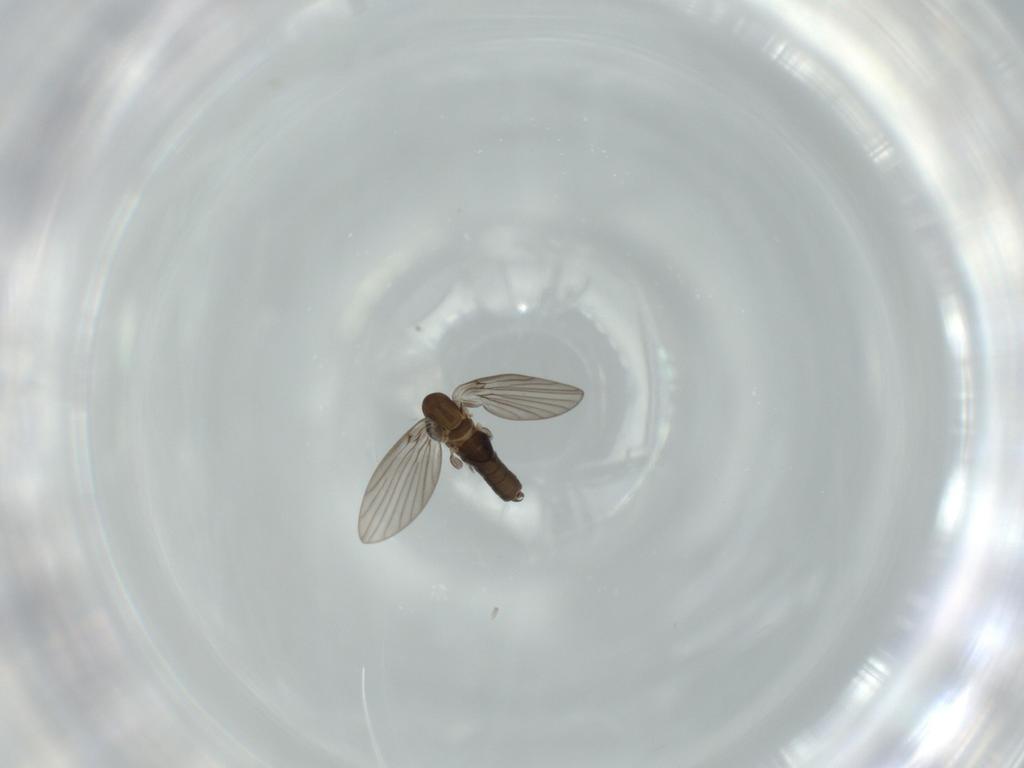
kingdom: Animalia
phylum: Arthropoda
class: Insecta
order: Diptera
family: Psychodidae
